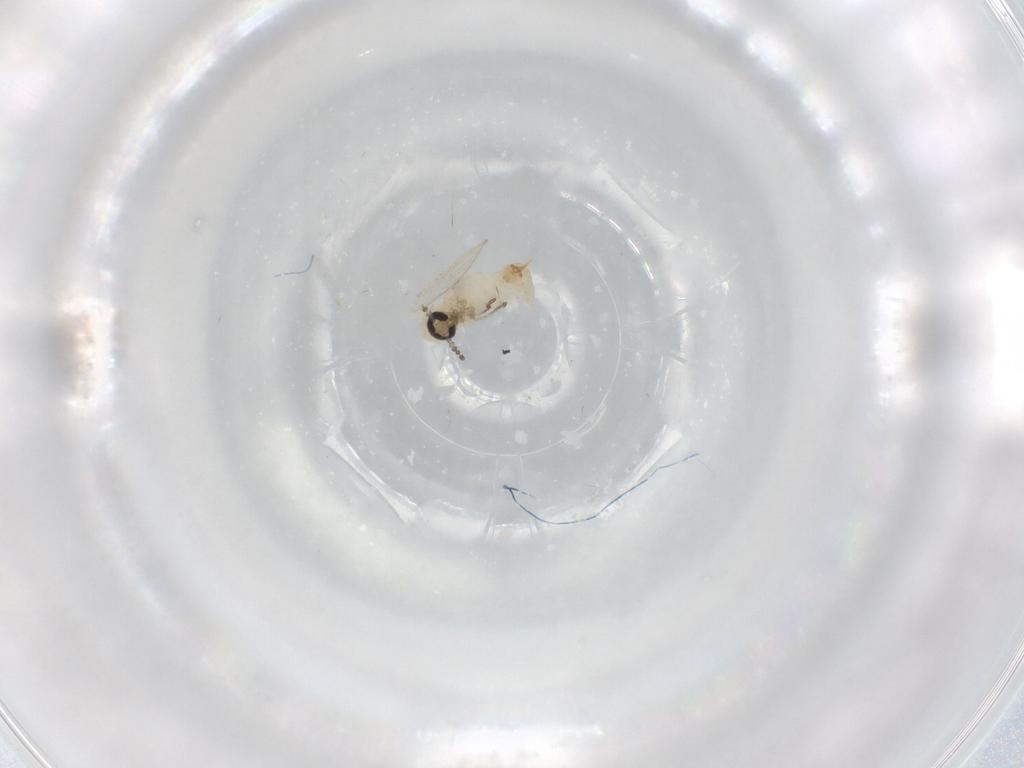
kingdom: Animalia
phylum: Arthropoda
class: Insecta
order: Diptera
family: Psychodidae
